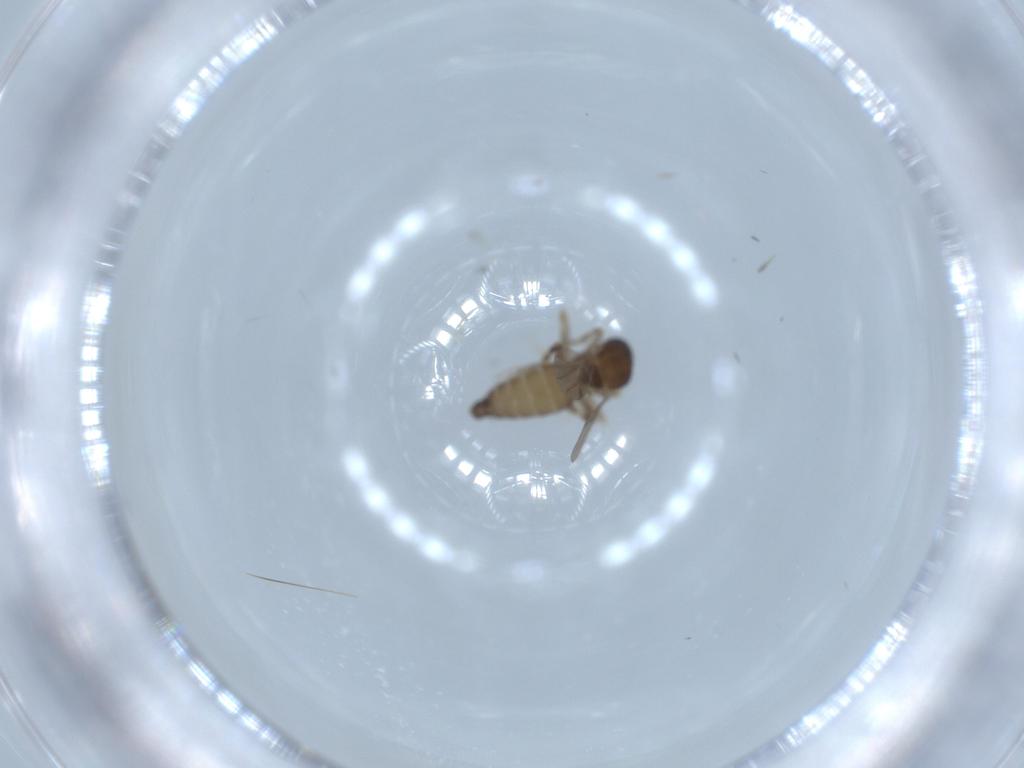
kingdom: Animalia
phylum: Arthropoda
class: Insecta
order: Diptera
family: Ceratopogonidae
